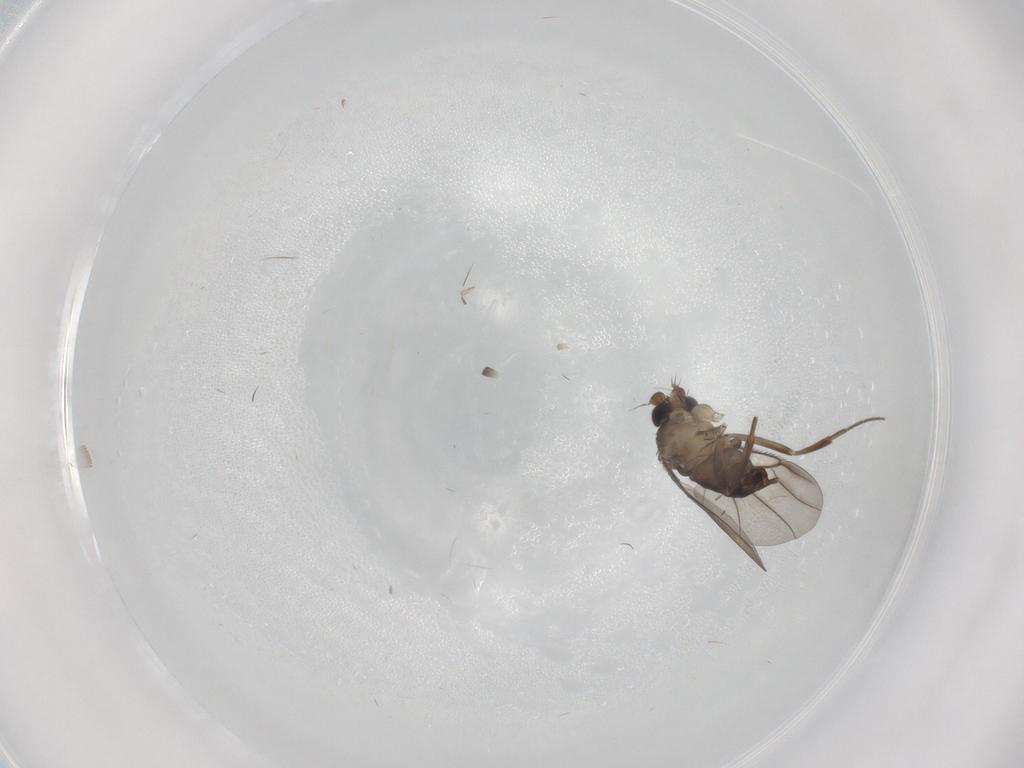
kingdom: Animalia
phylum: Arthropoda
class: Insecta
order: Diptera
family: Phoridae
